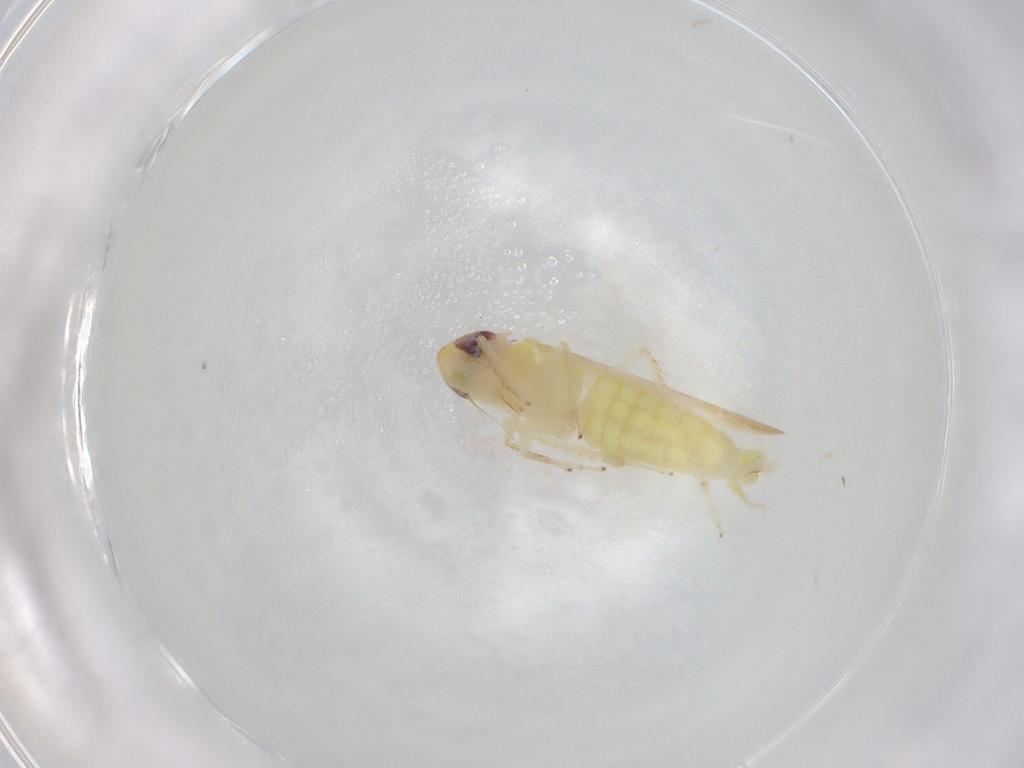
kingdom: Animalia
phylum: Arthropoda
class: Insecta
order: Hemiptera
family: Cicadellidae
